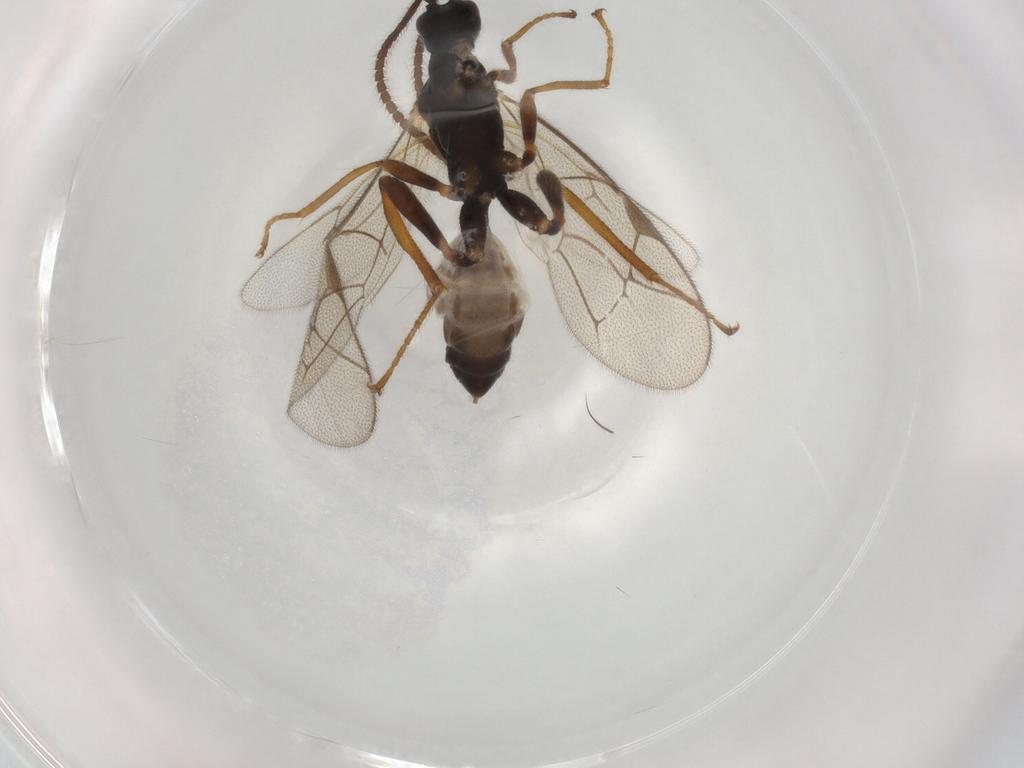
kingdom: Animalia
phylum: Arthropoda
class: Insecta
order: Hymenoptera
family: Ichneumonidae
